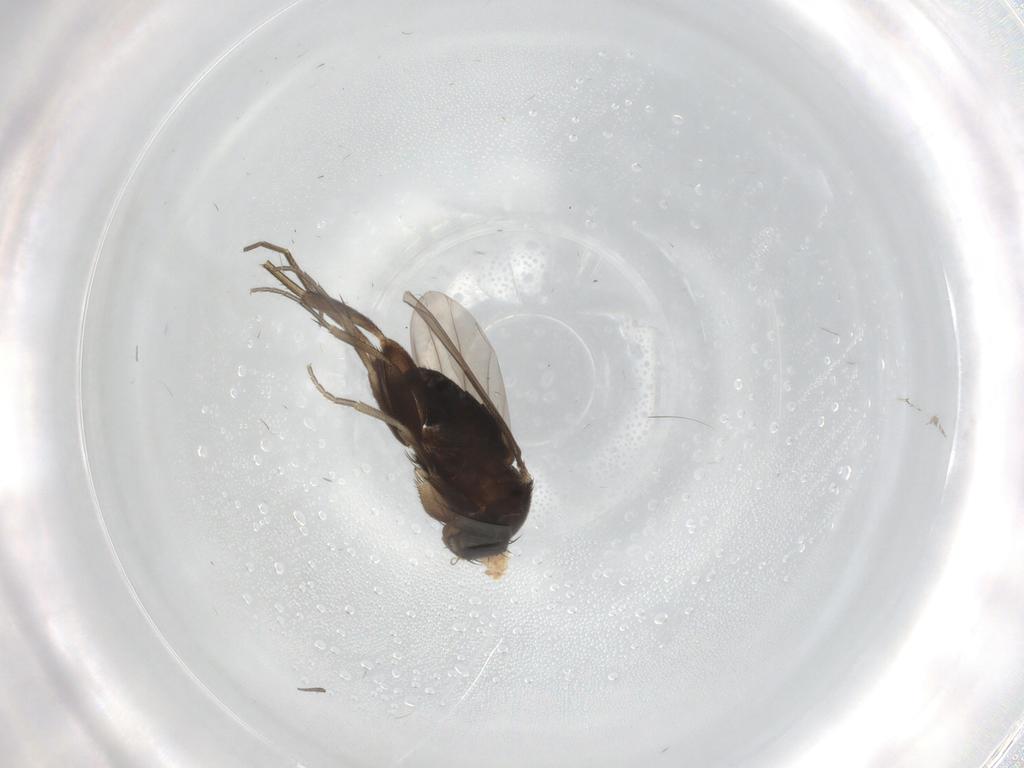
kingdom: Animalia
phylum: Arthropoda
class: Insecta
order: Diptera
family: Phoridae
